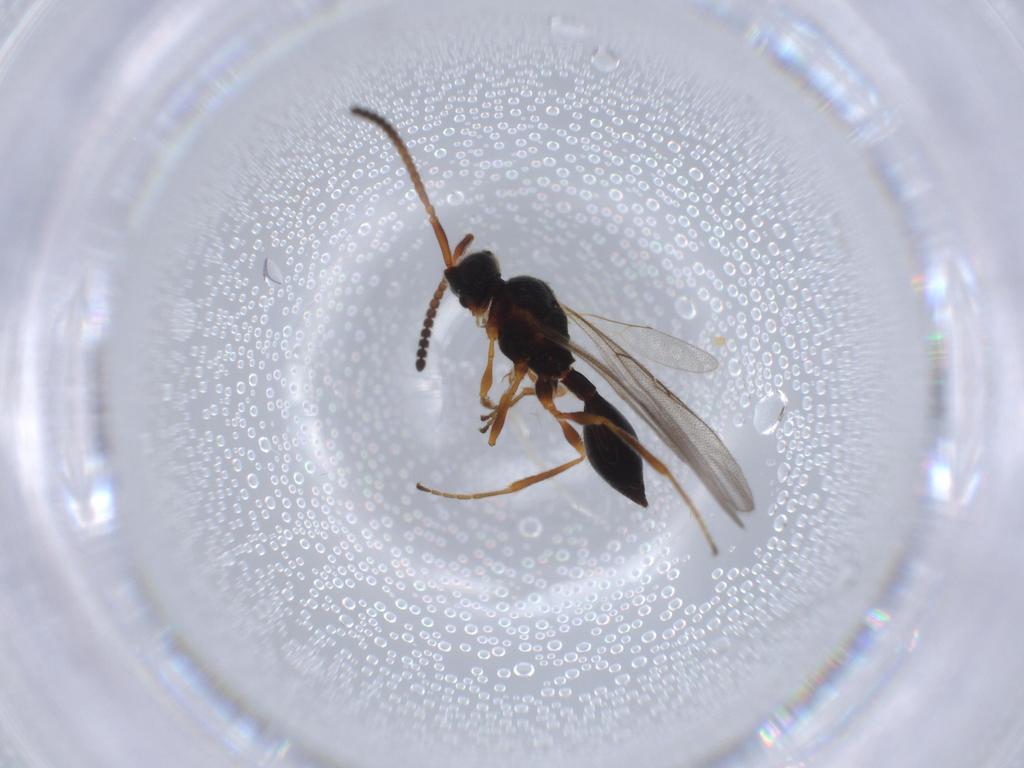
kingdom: Animalia
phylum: Arthropoda
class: Insecta
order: Hymenoptera
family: Diapriidae
